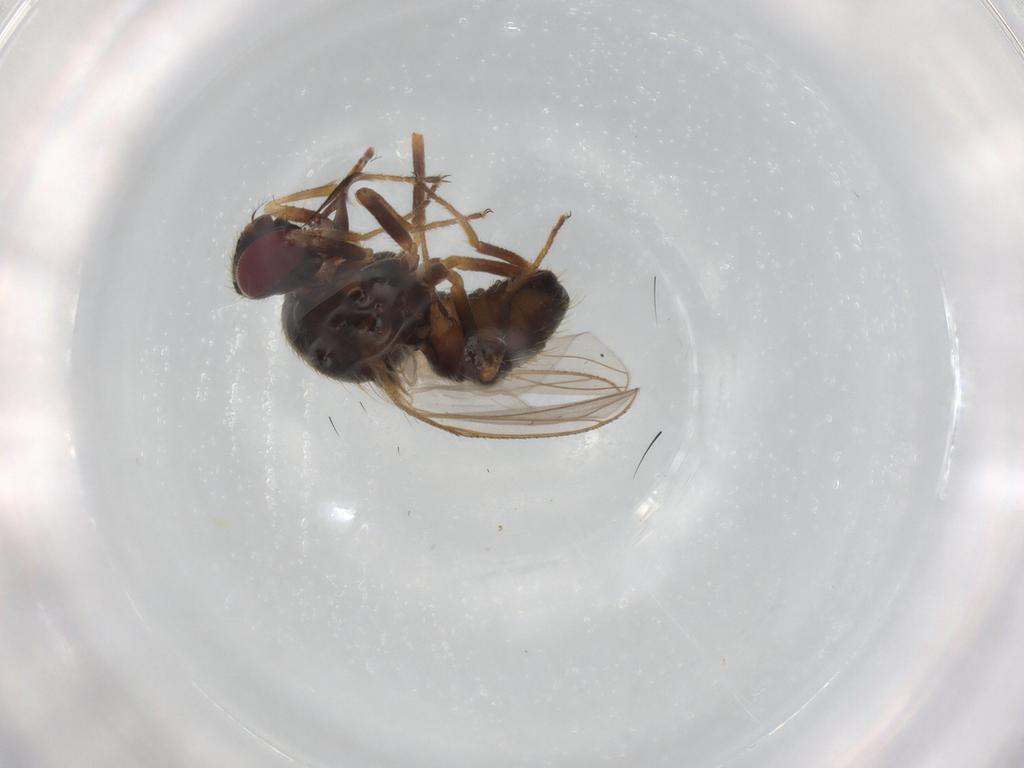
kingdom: Animalia
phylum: Arthropoda
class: Insecta
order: Diptera
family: Muscidae
